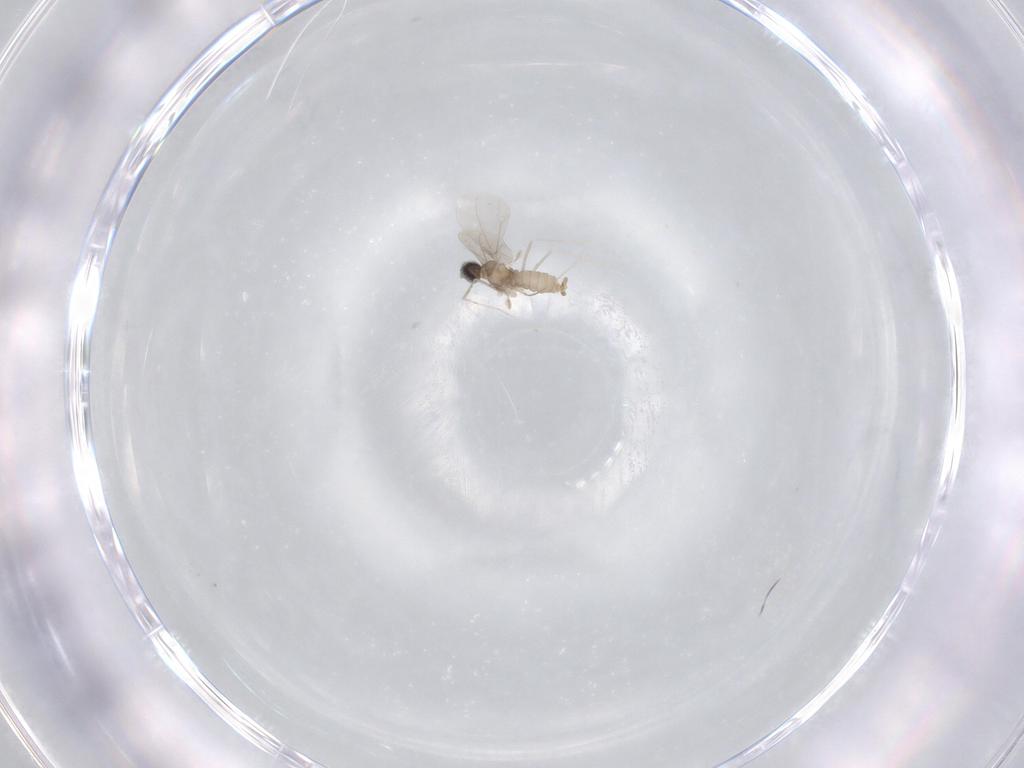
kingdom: Animalia
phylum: Arthropoda
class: Insecta
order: Diptera
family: Cecidomyiidae
